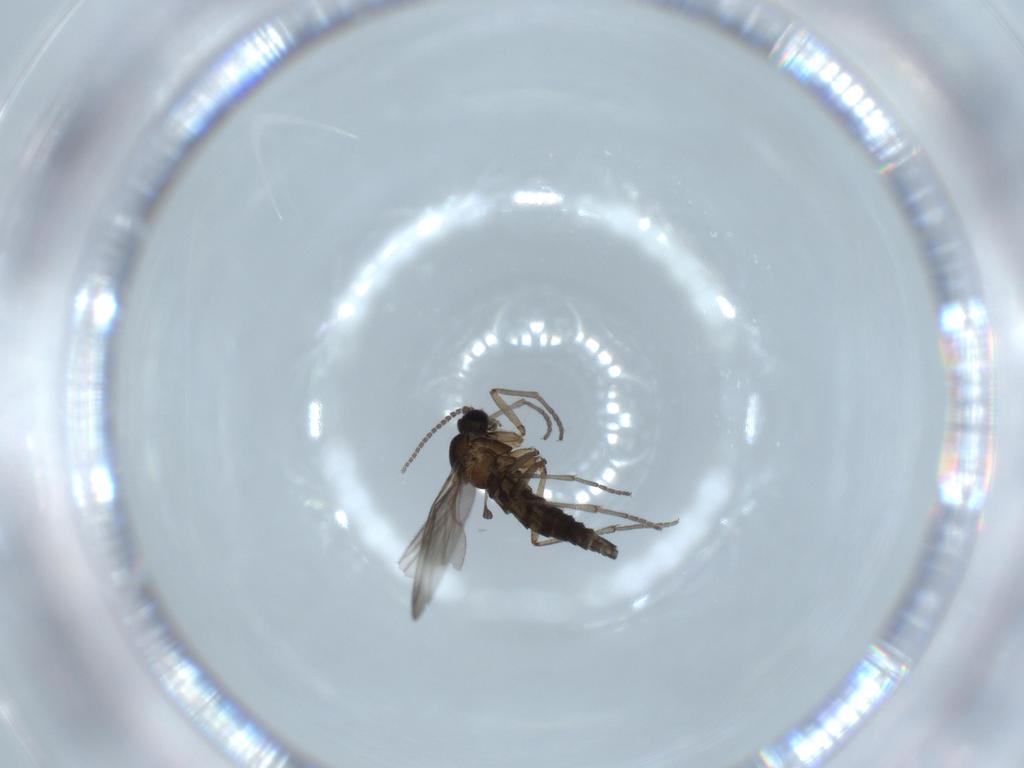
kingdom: Animalia
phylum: Arthropoda
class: Insecta
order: Diptera
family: Sciaridae
